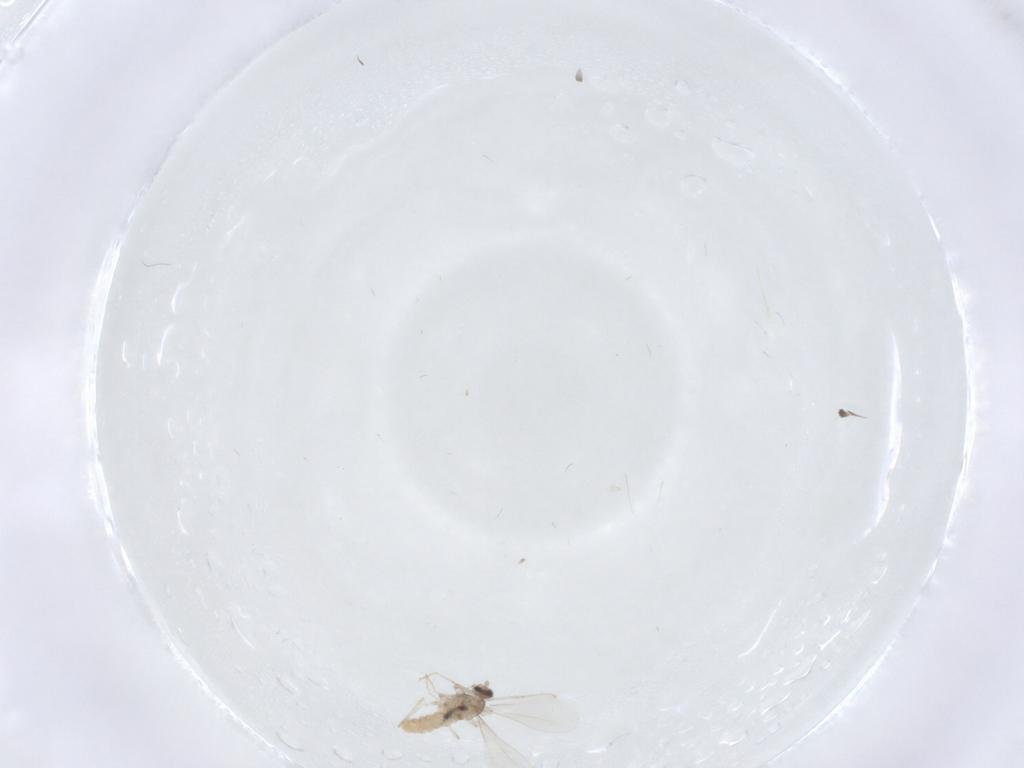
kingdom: Animalia
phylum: Arthropoda
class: Insecta
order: Diptera
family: Cecidomyiidae
